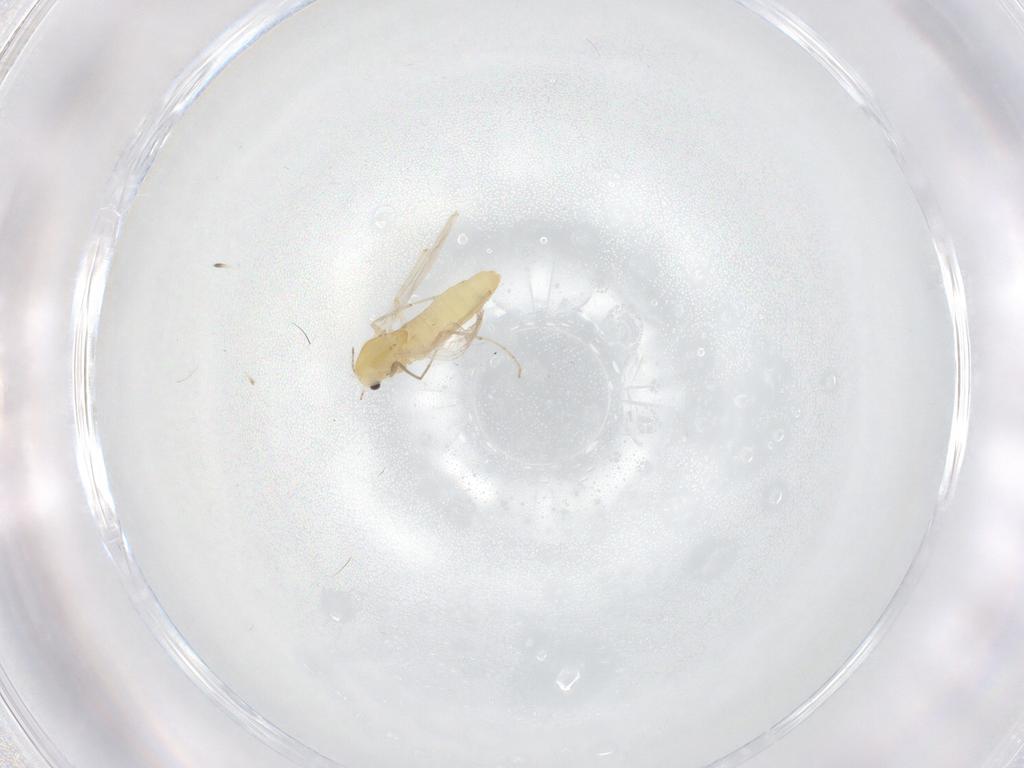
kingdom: Animalia
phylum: Arthropoda
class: Insecta
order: Diptera
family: Chironomidae
